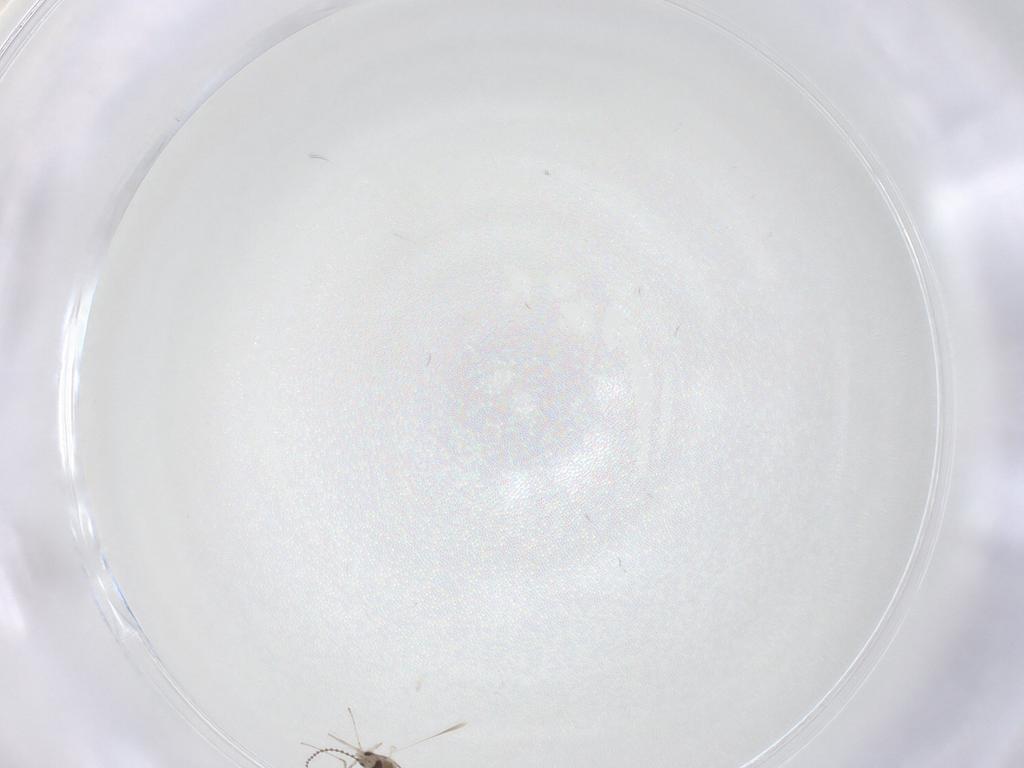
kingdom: Animalia
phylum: Arthropoda
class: Insecta
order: Diptera
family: Cecidomyiidae
